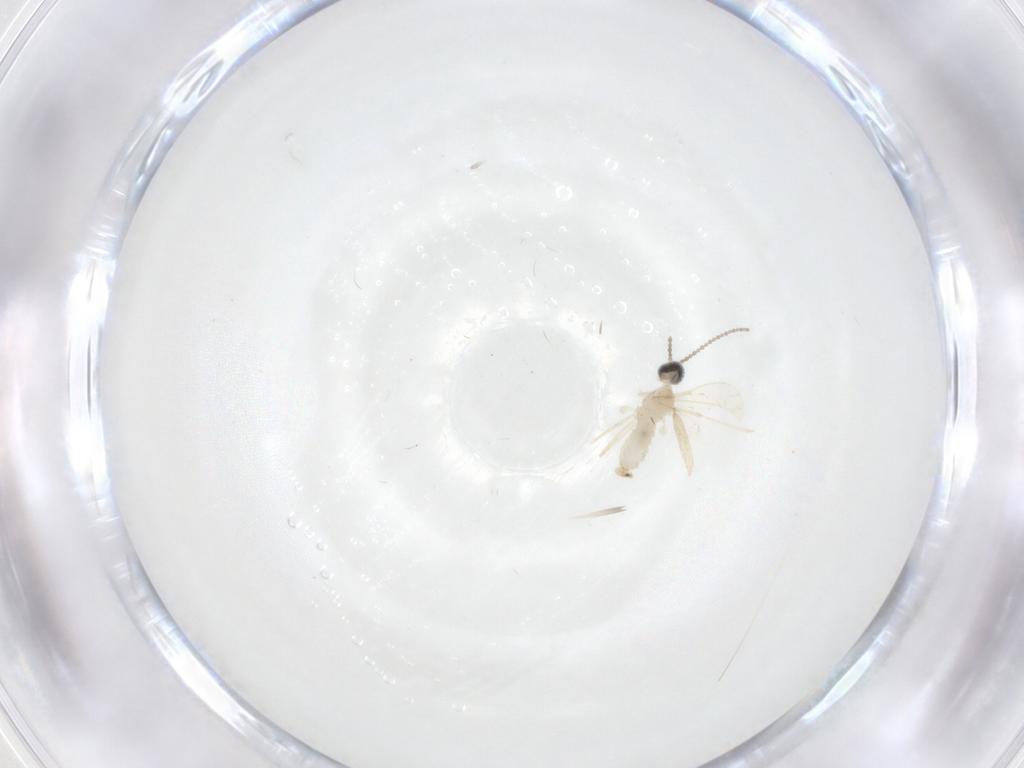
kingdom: Animalia
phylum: Arthropoda
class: Insecta
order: Diptera
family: Cecidomyiidae
